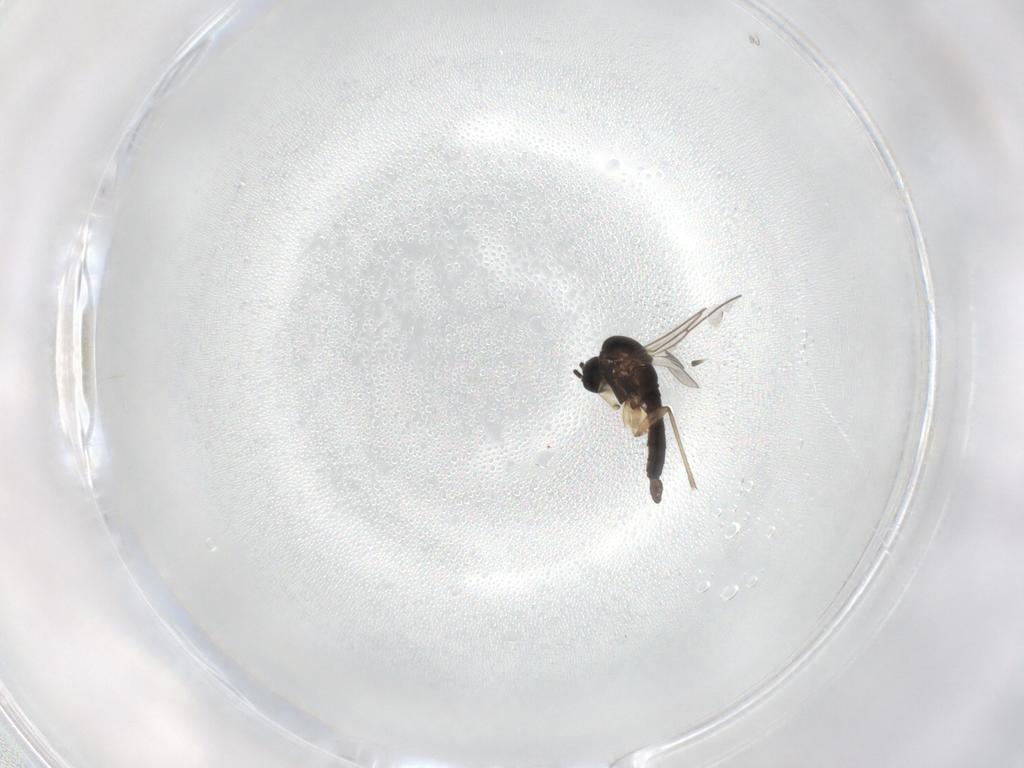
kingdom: Animalia
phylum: Arthropoda
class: Insecta
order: Diptera
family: Sciaridae
